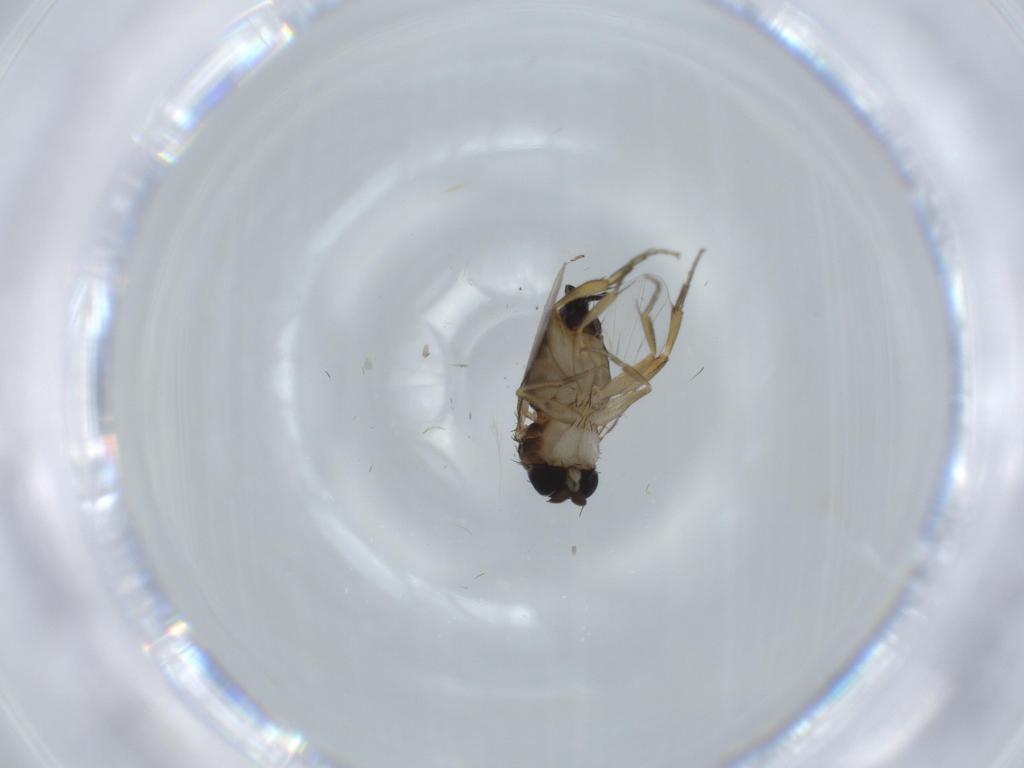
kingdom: Animalia
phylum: Arthropoda
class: Insecta
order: Diptera
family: Phoridae
